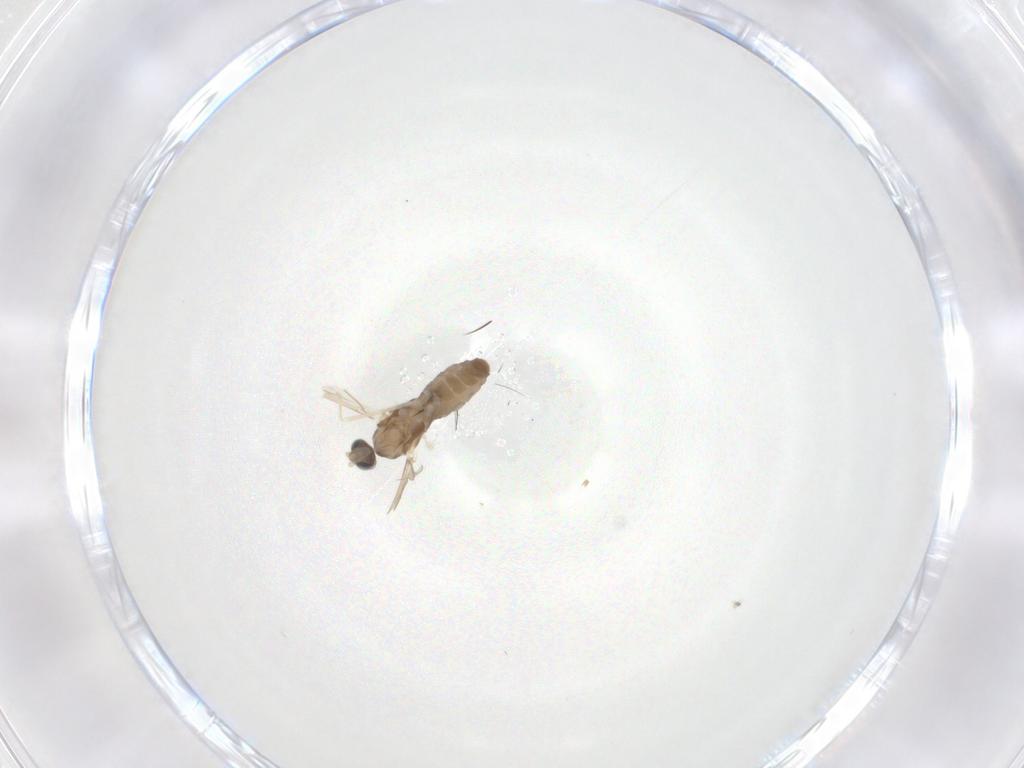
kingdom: Animalia
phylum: Arthropoda
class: Insecta
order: Diptera
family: Cecidomyiidae
